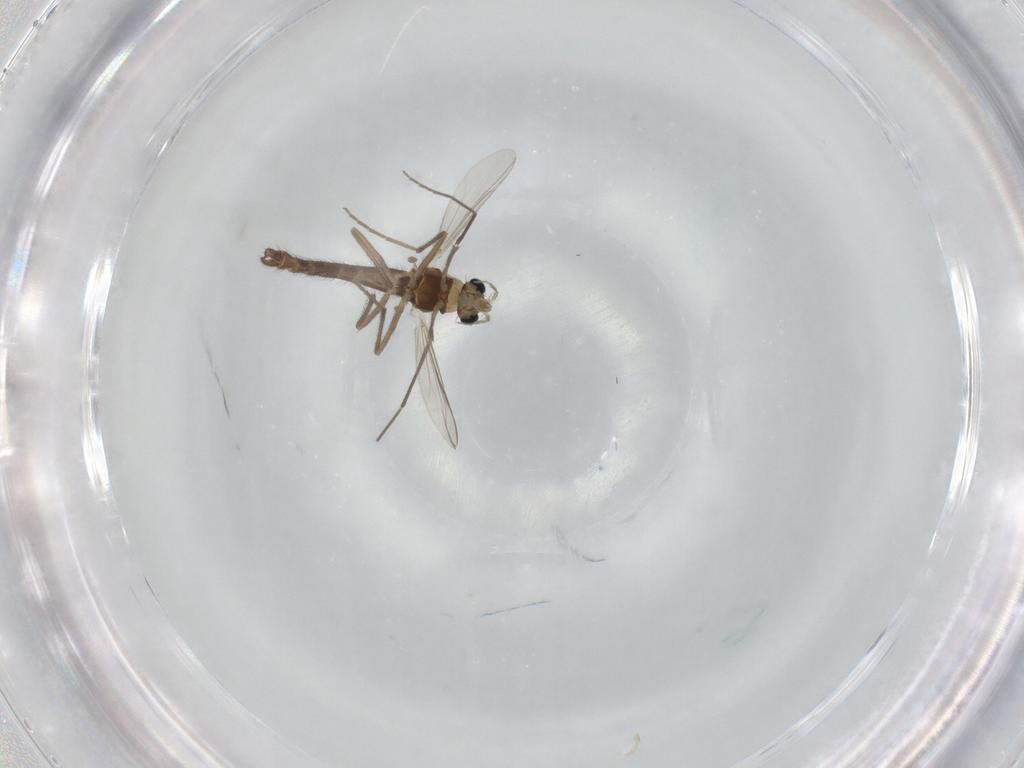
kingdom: Animalia
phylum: Arthropoda
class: Insecta
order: Diptera
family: Chironomidae
